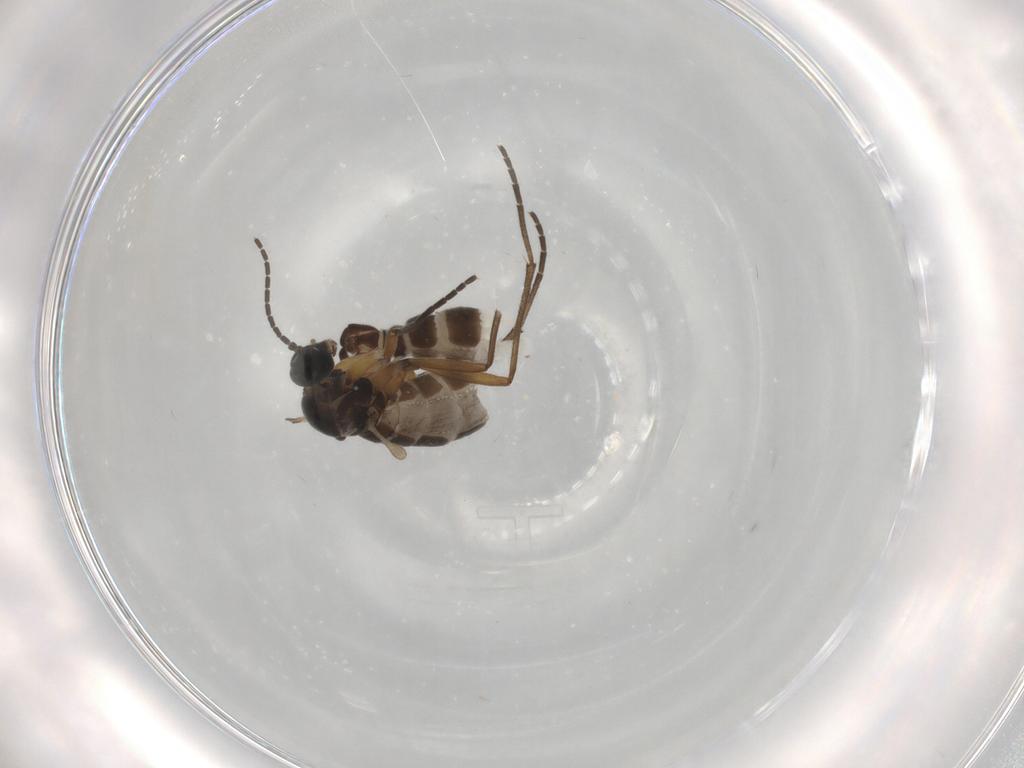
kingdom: Animalia
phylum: Arthropoda
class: Insecta
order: Diptera
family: Sciaridae
